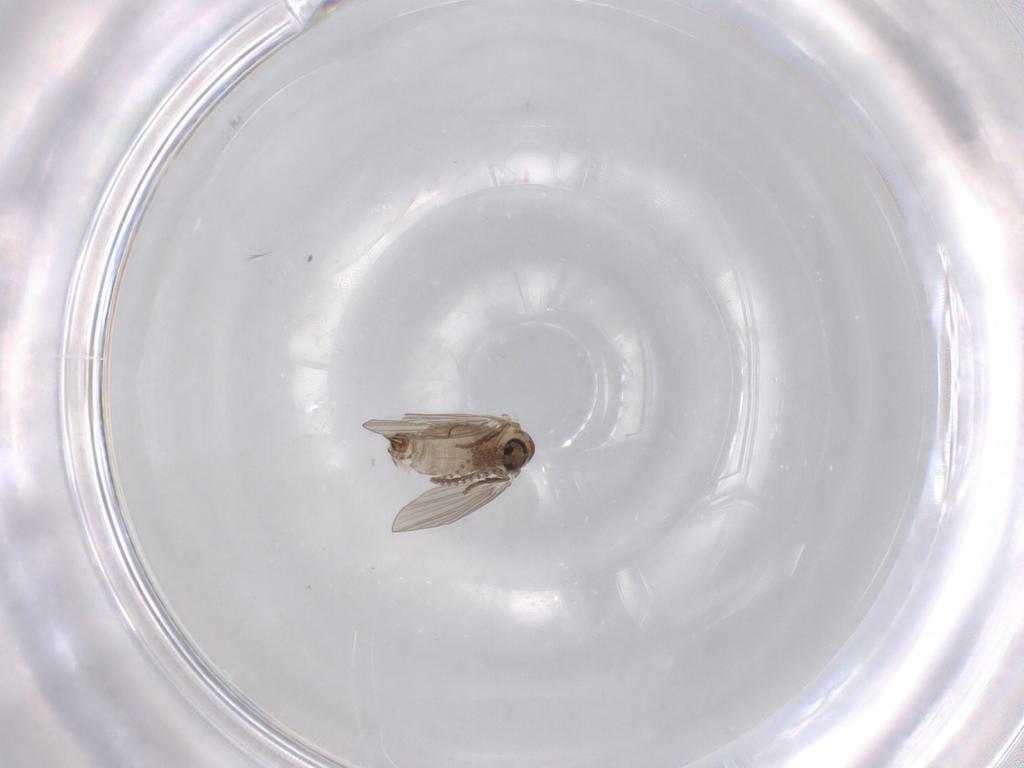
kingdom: Animalia
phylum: Arthropoda
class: Insecta
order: Diptera
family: Psychodidae
